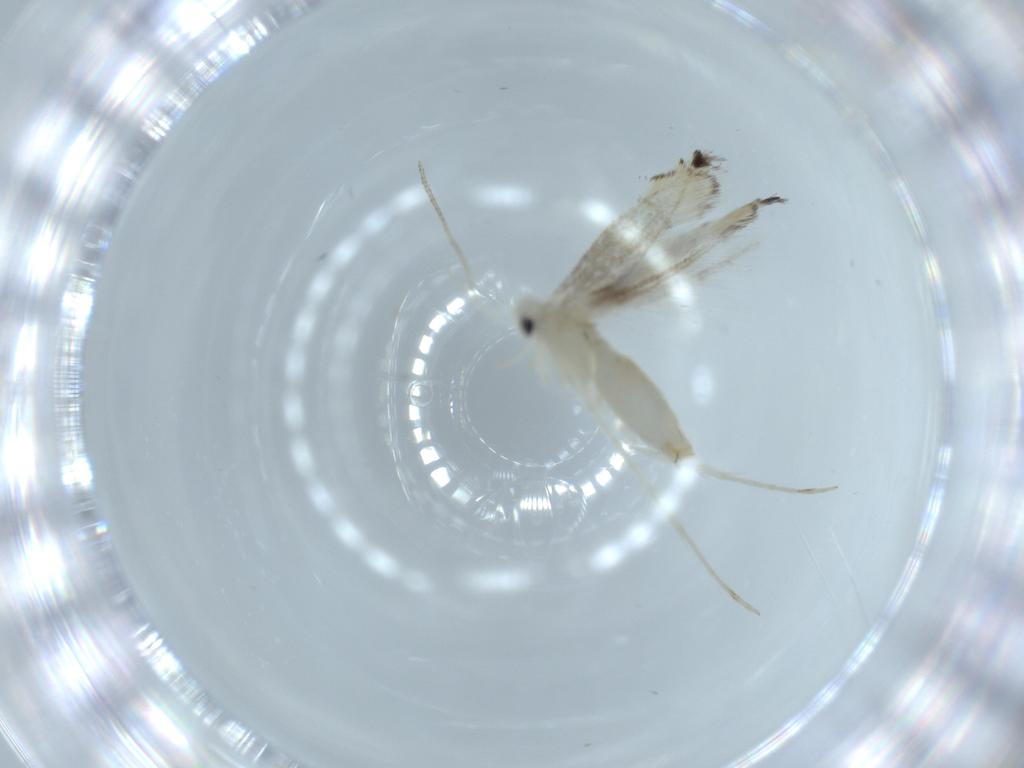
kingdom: Animalia
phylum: Arthropoda
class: Insecta
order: Lepidoptera
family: Gracillariidae
